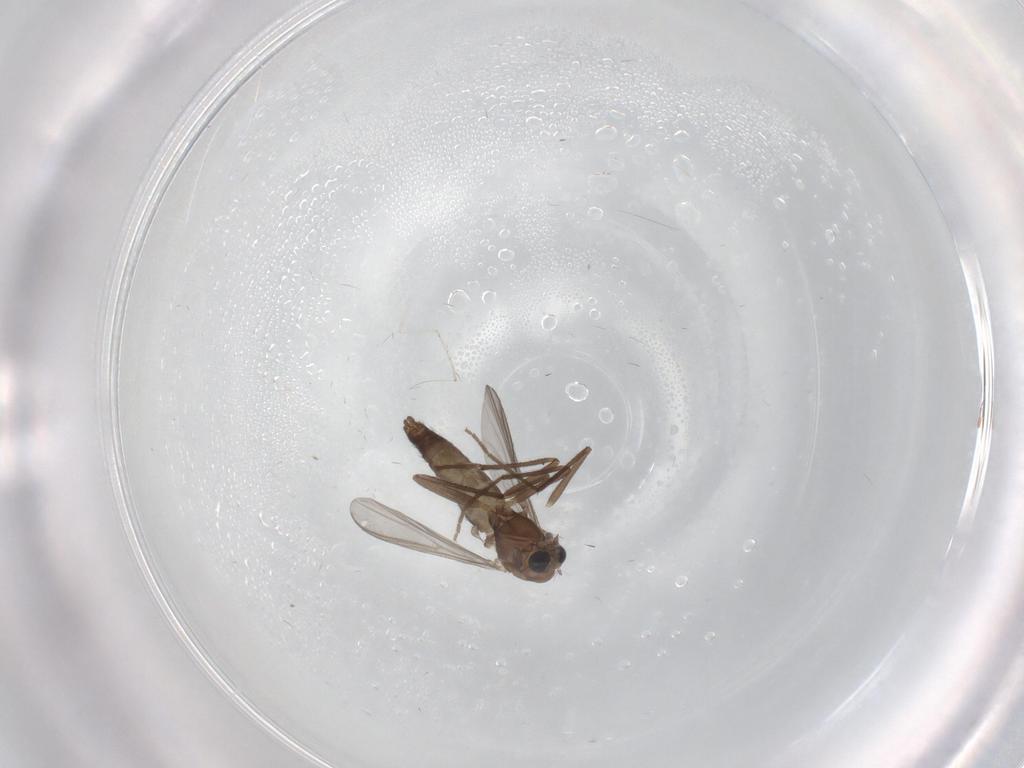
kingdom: Animalia
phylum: Arthropoda
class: Insecta
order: Diptera
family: Chironomidae
